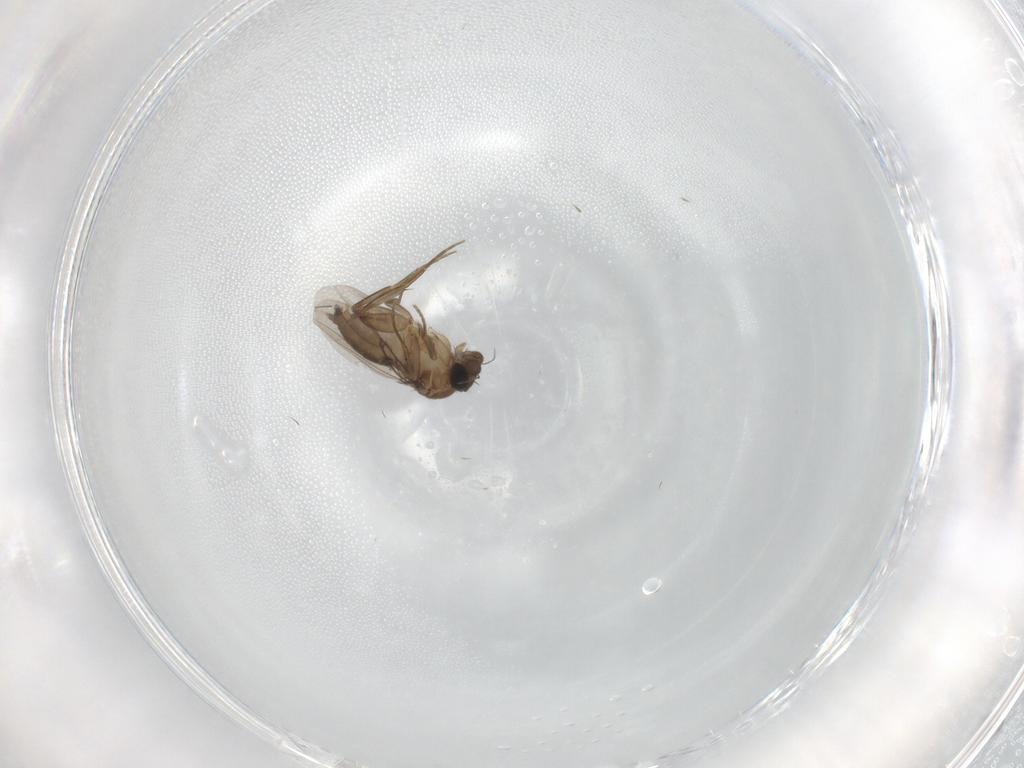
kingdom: Animalia
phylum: Arthropoda
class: Insecta
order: Diptera
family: Phoridae
